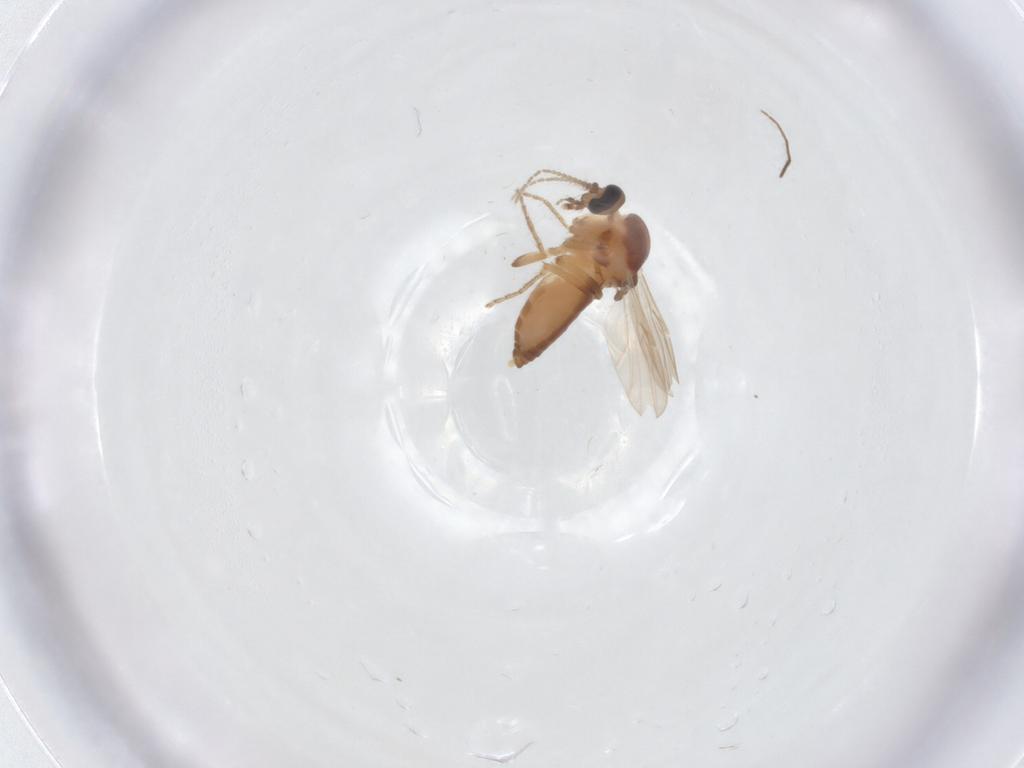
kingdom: Animalia
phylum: Arthropoda
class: Insecta
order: Diptera
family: Ceratopogonidae
